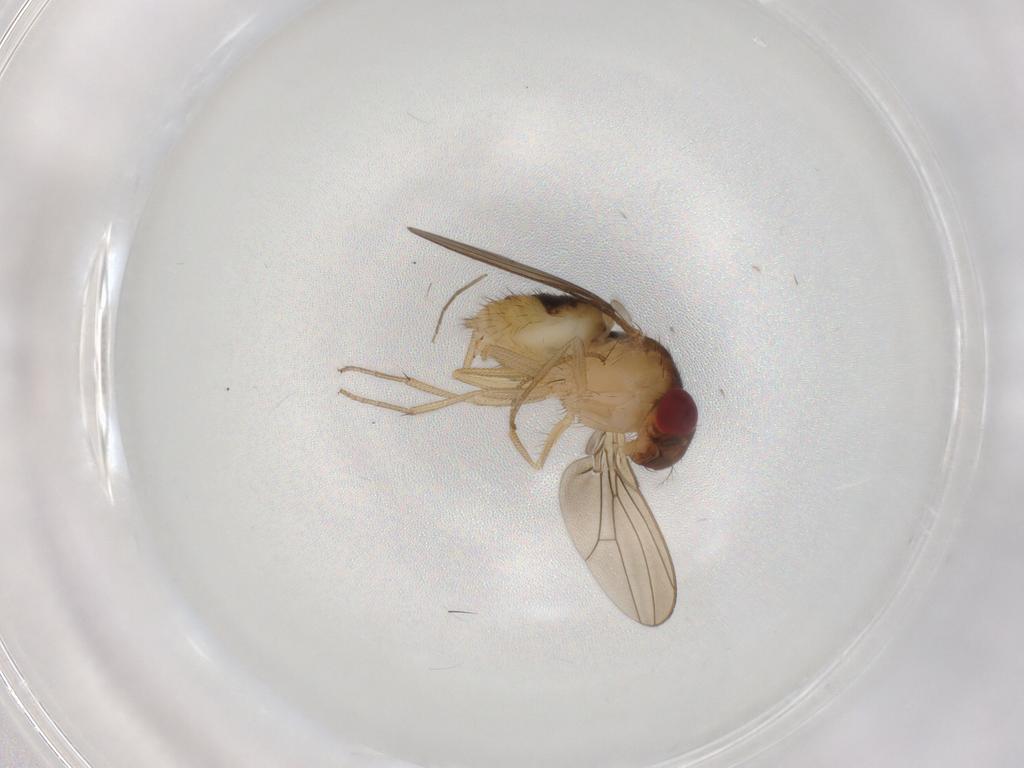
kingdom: Animalia
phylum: Arthropoda
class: Insecta
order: Diptera
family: Drosophilidae
